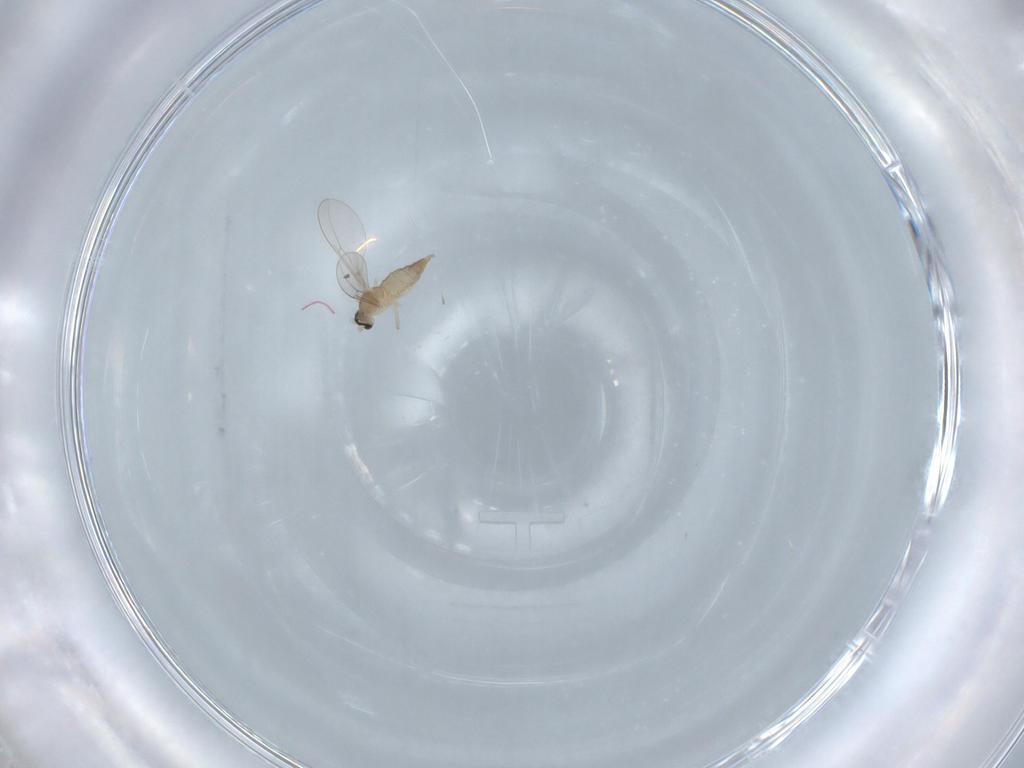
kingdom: Animalia
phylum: Arthropoda
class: Insecta
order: Diptera
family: Cecidomyiidae
